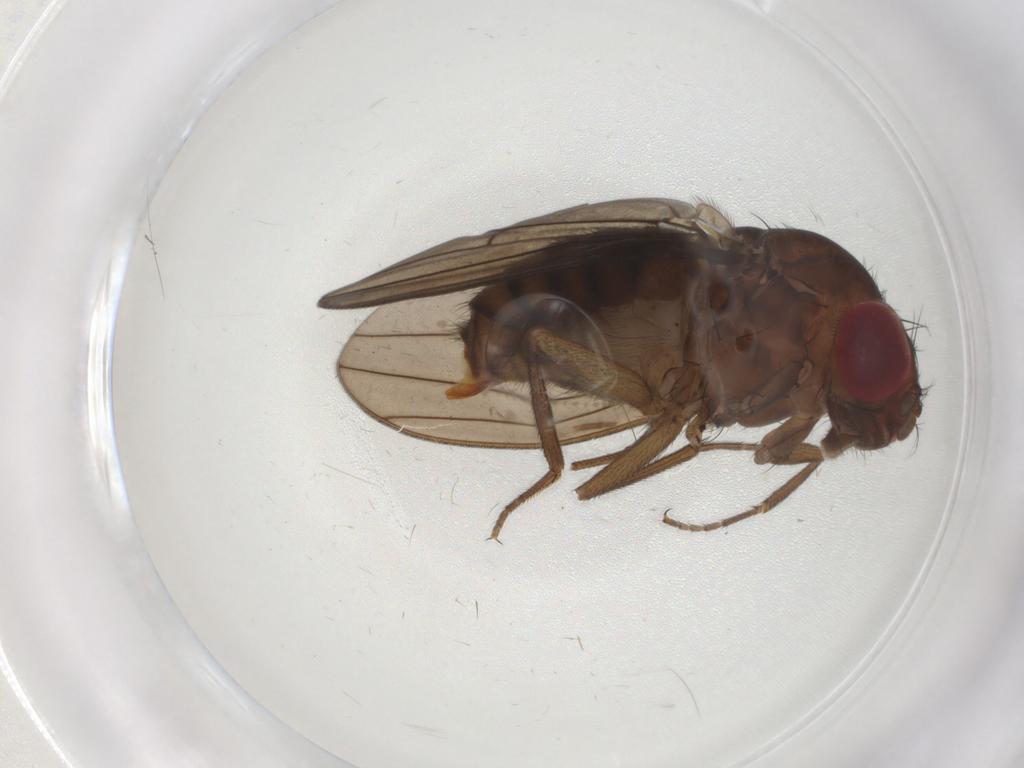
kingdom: Animalia
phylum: Arthropoda
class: Insecta
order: Diptera
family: Drosophilidae
